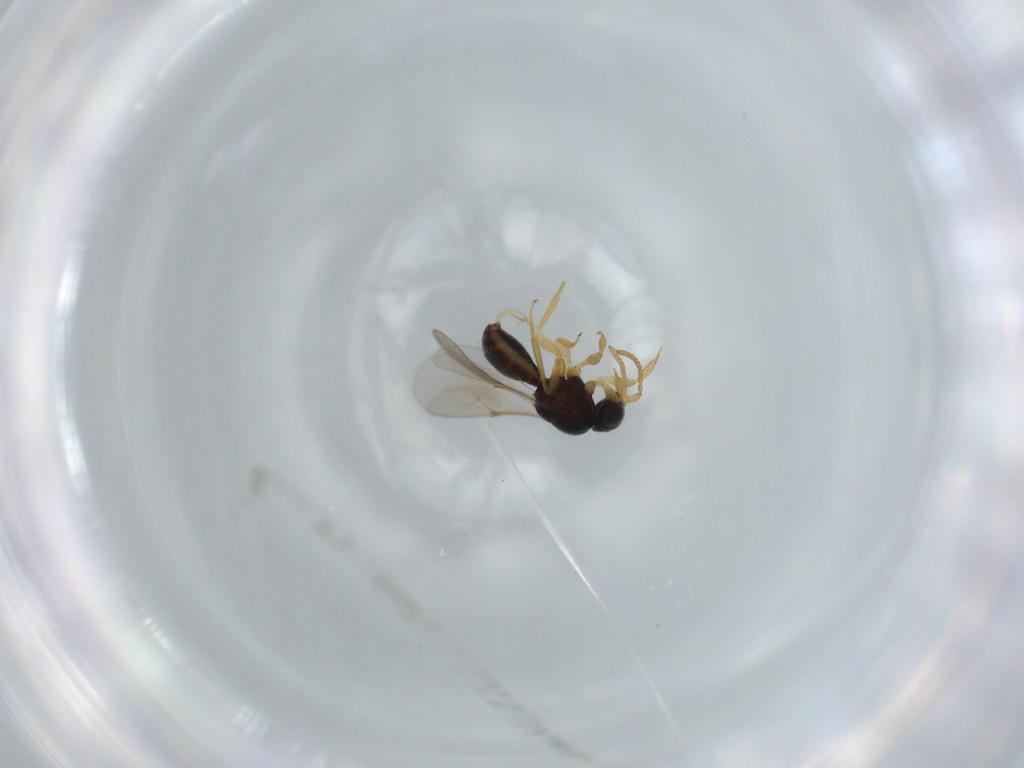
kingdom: Animalia
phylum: Arthropoda
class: Insecta
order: Hymenoptera
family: Scelionidae
